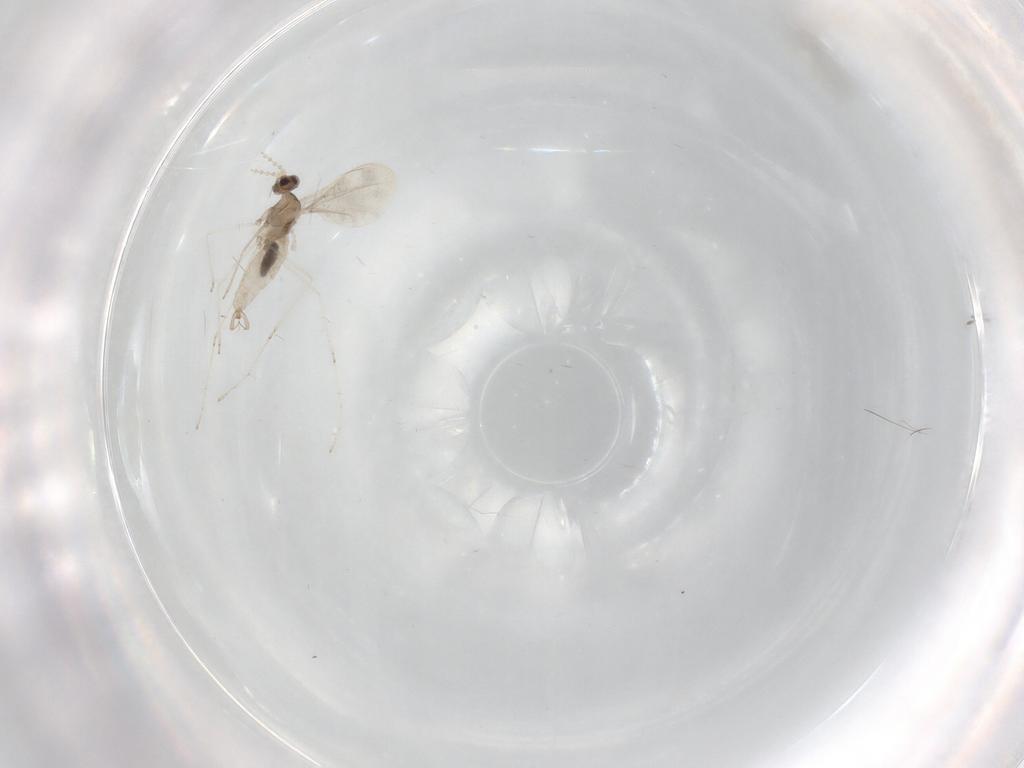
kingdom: Animalia
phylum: Arthropoda
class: Insecta
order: Diptera
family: Cecidomyiidae
